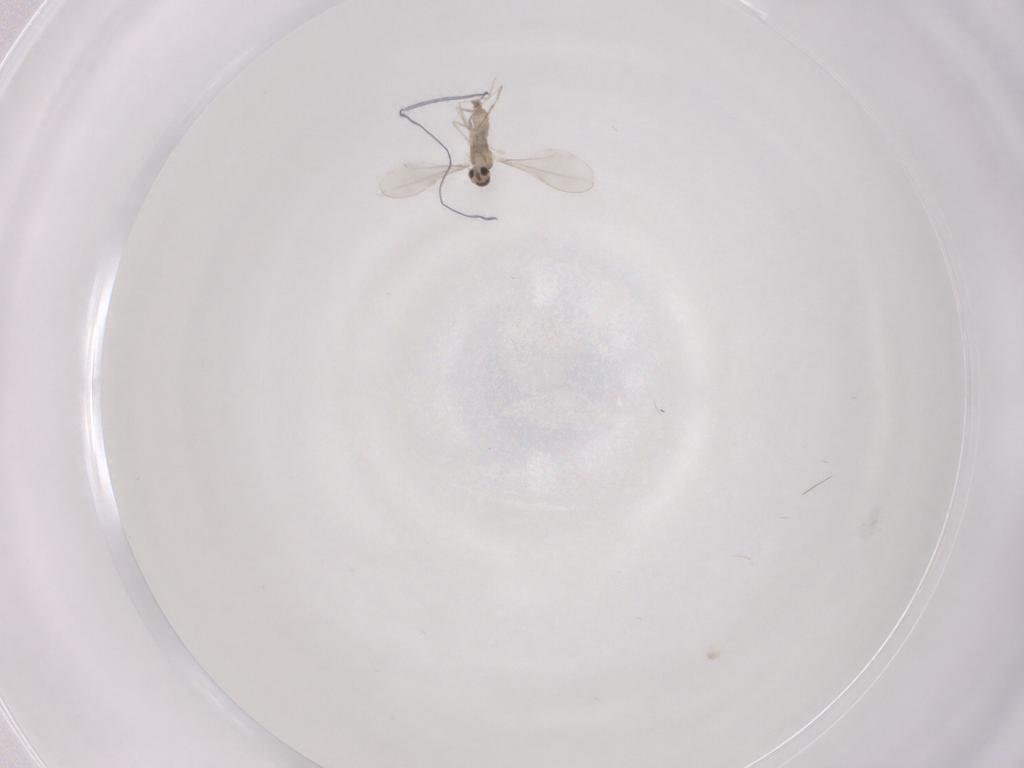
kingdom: Animalia
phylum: Arthropoda
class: Insecta
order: Diptera
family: Cecidomyiidae
